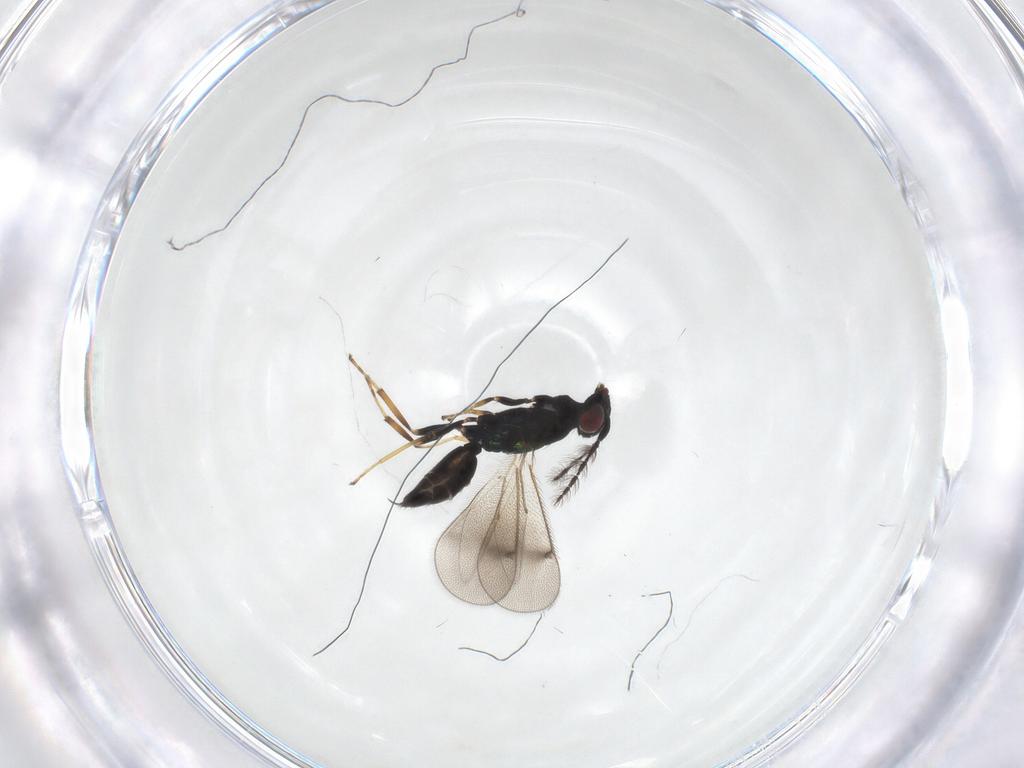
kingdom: Animalia
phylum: Arthropoda
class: Insecta
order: Hymenoptera
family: Eulophidae
